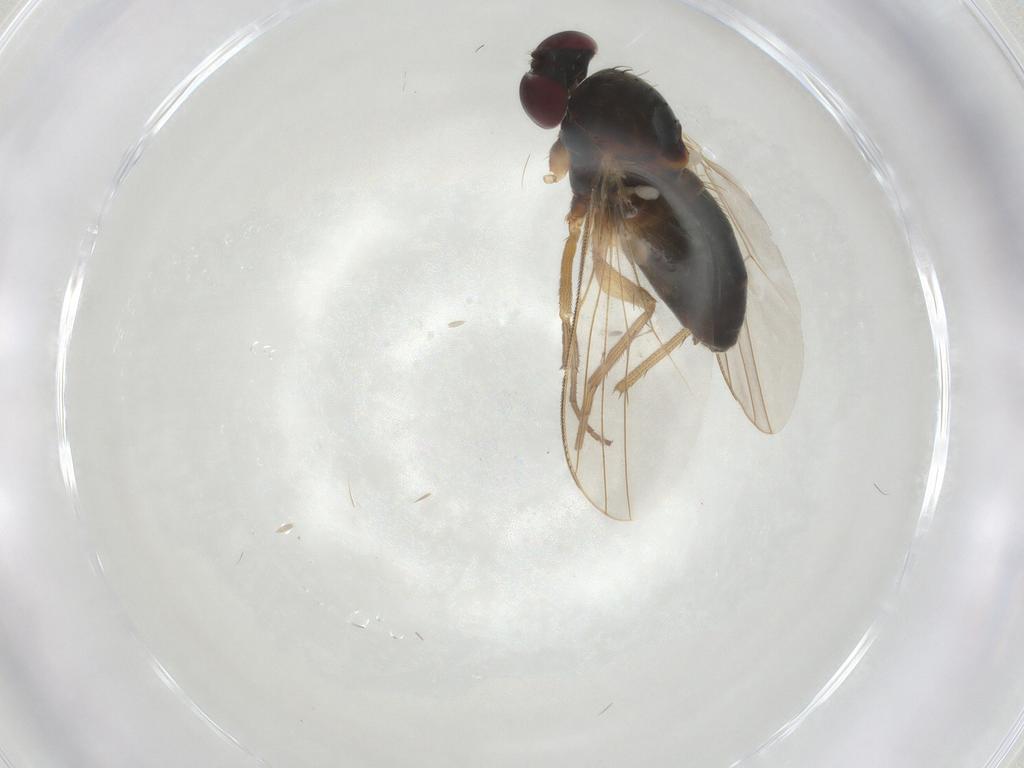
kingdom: Animalia
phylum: Arthropoda
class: Insecta
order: Diptera
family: Dolichopodidae
